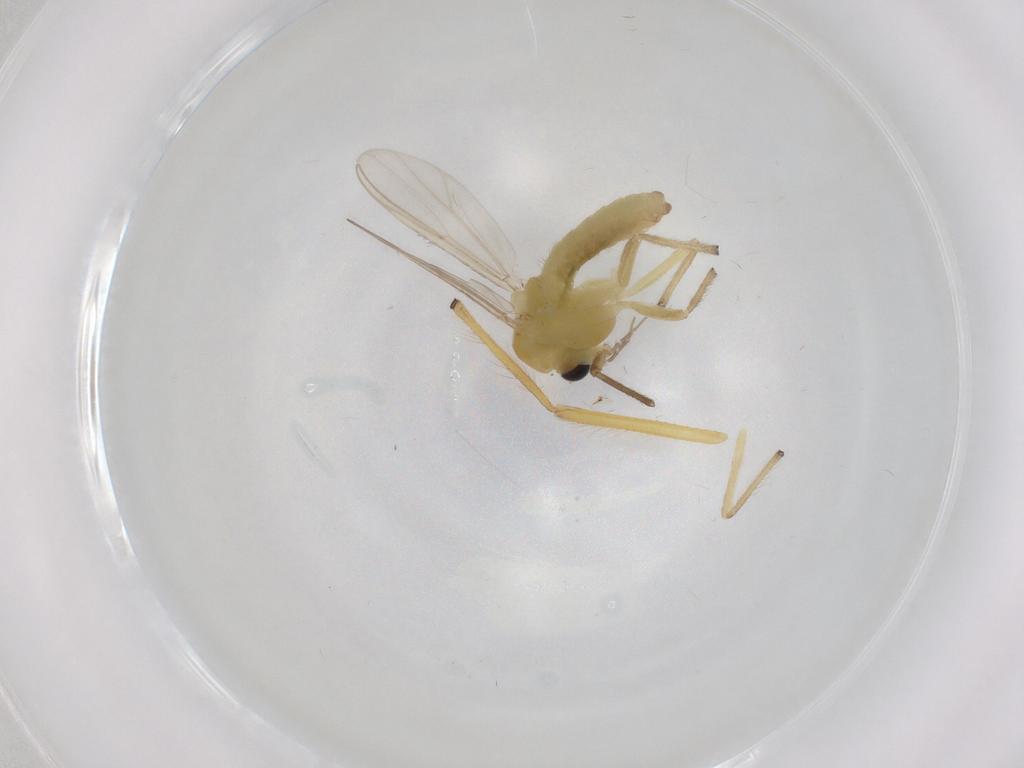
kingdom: Animalia
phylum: Arthropoda
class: Insecta
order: Diptera
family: Chironomidae
